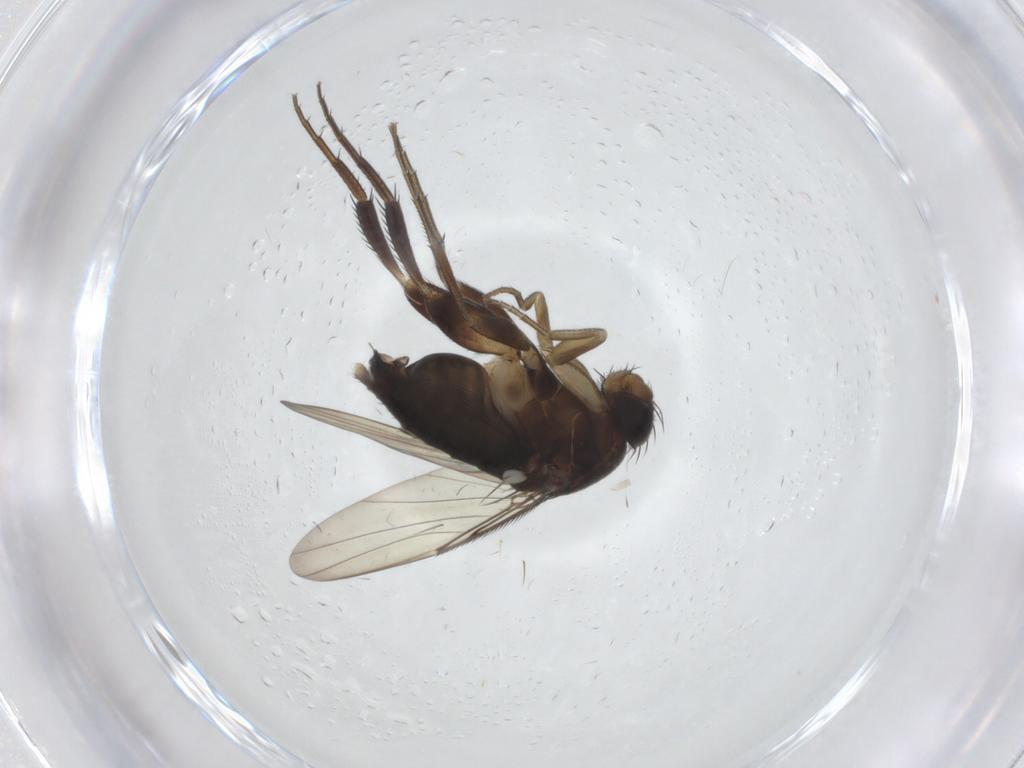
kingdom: Animalia
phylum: Arthropoda
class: Insecta
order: Diptera
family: Phoridae
